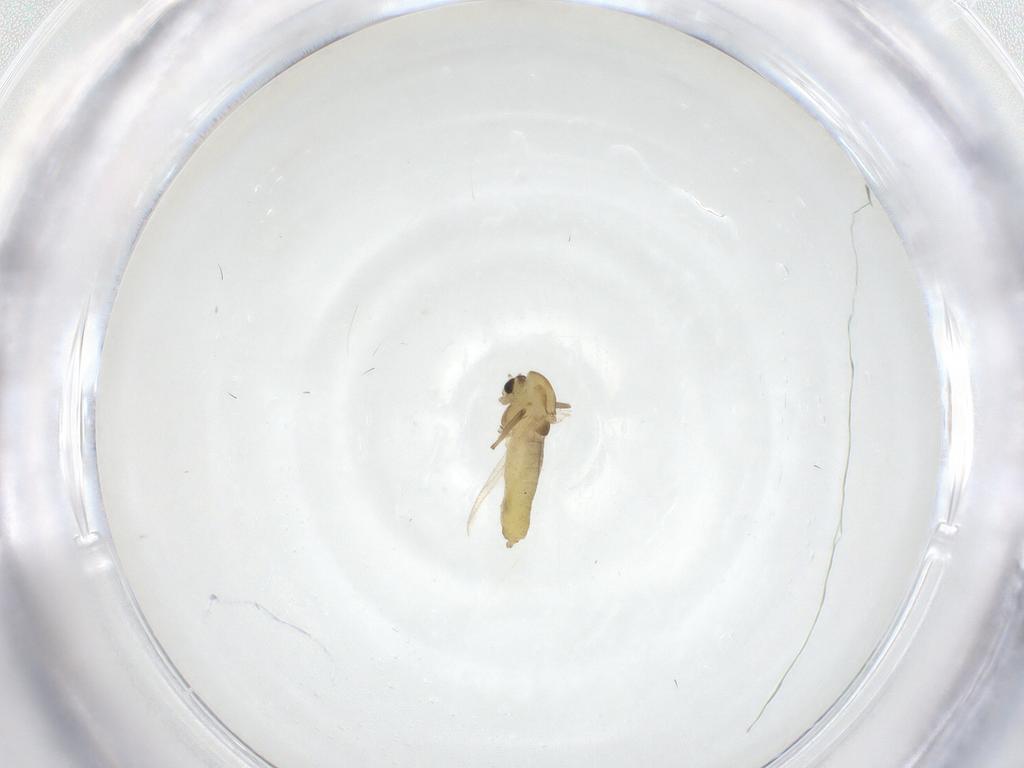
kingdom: Animalia
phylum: Arthropoda
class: Insecta
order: Diptera
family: Chironomidae
